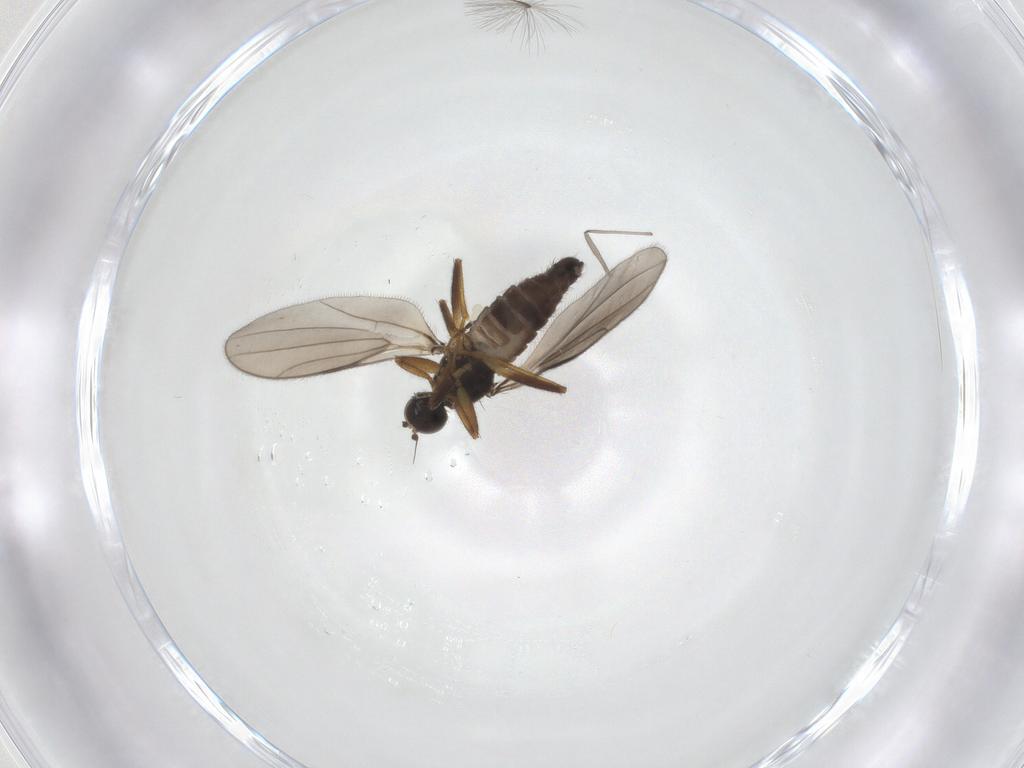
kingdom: Animalia
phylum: Arthropoda
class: Insecta
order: Diptera
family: Hybotidae
